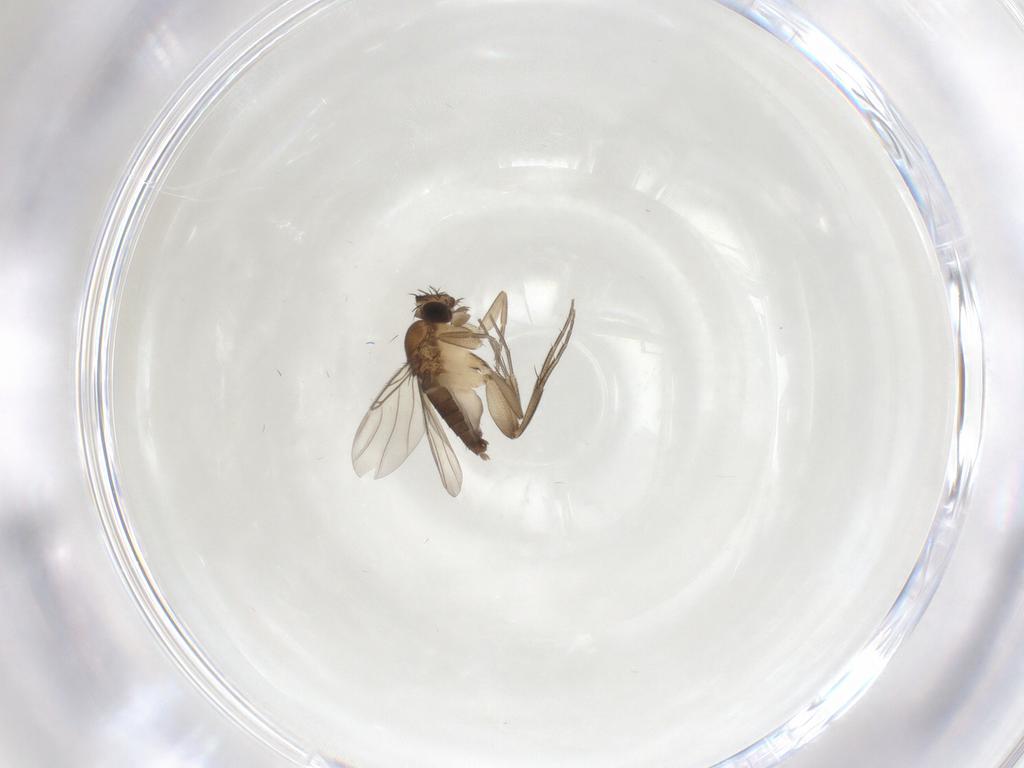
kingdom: Animalia
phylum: Arthropoda
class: Insecta
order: Diptera
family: Phoridae
